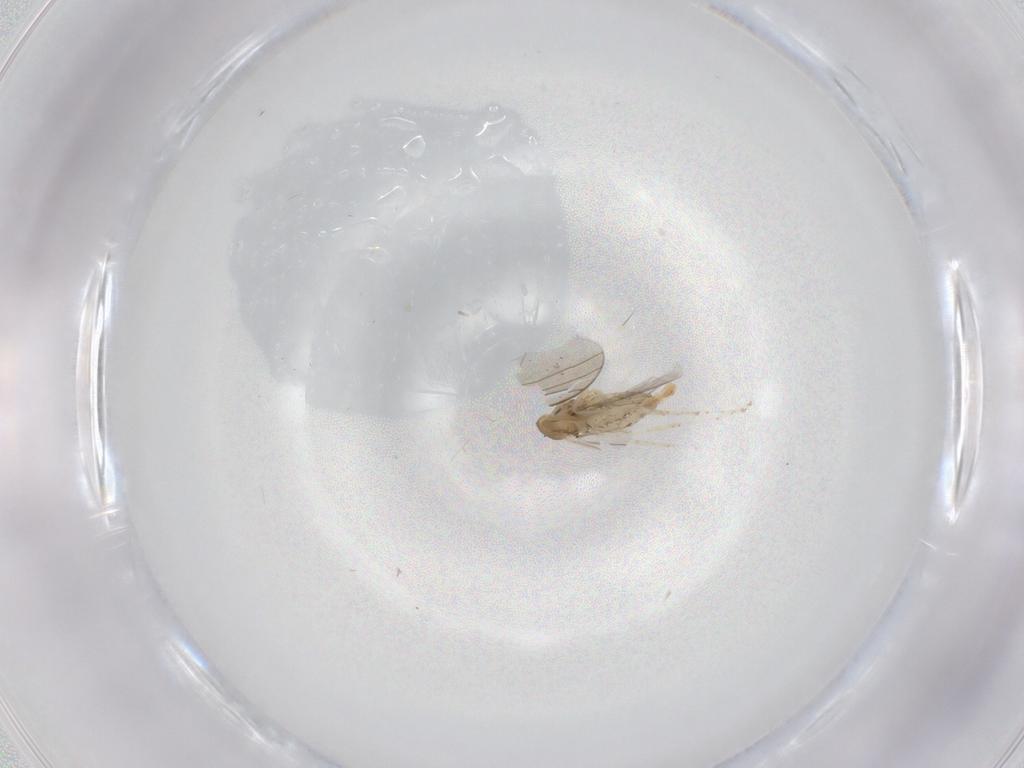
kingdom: Animalia
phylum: Arthropoda
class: Insecta
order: Diptera
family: Cecidomyiidae
